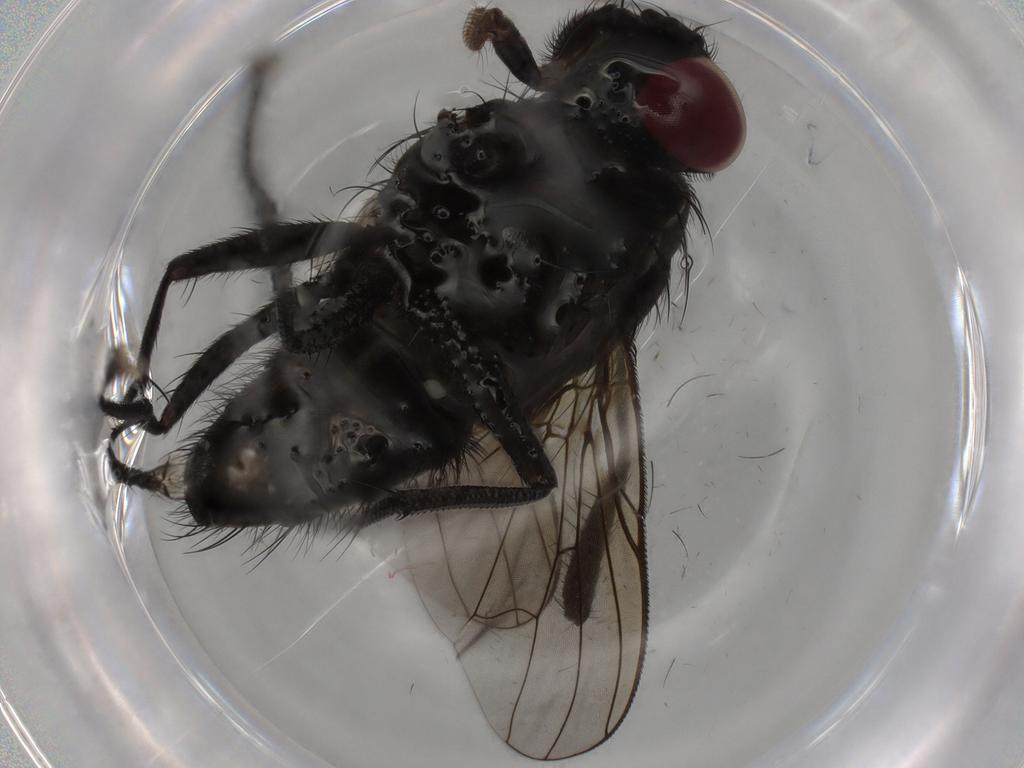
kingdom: Animalia
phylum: Arthropoda
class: Insecta
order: Diptera
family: Muscidae
